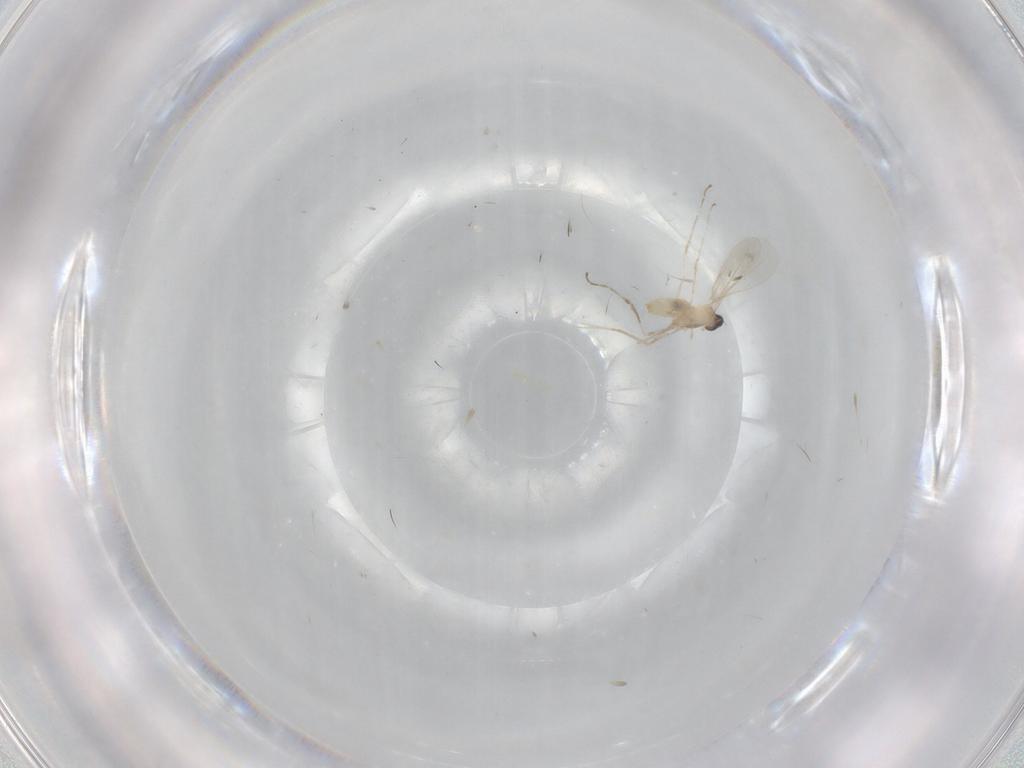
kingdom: Animalia
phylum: Arthropoda
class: Insecta
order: Diptera
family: Cecidomyiidae
